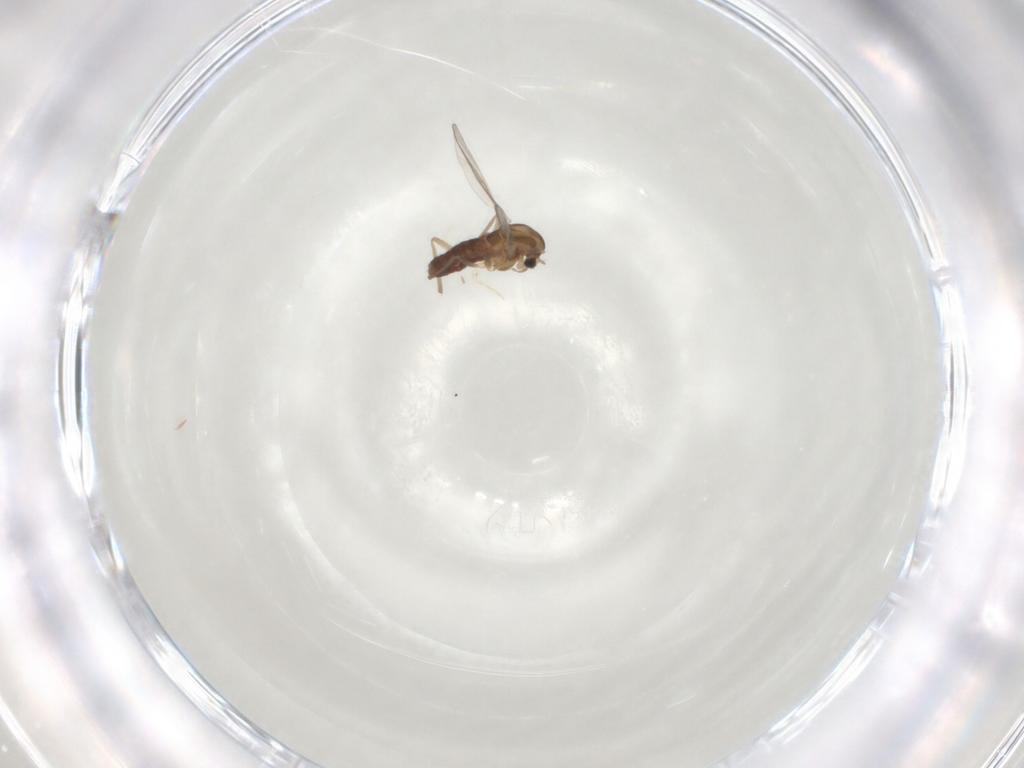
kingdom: Animalia
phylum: Arthropoda
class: Insecta
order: Diptera
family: Chironomidae
